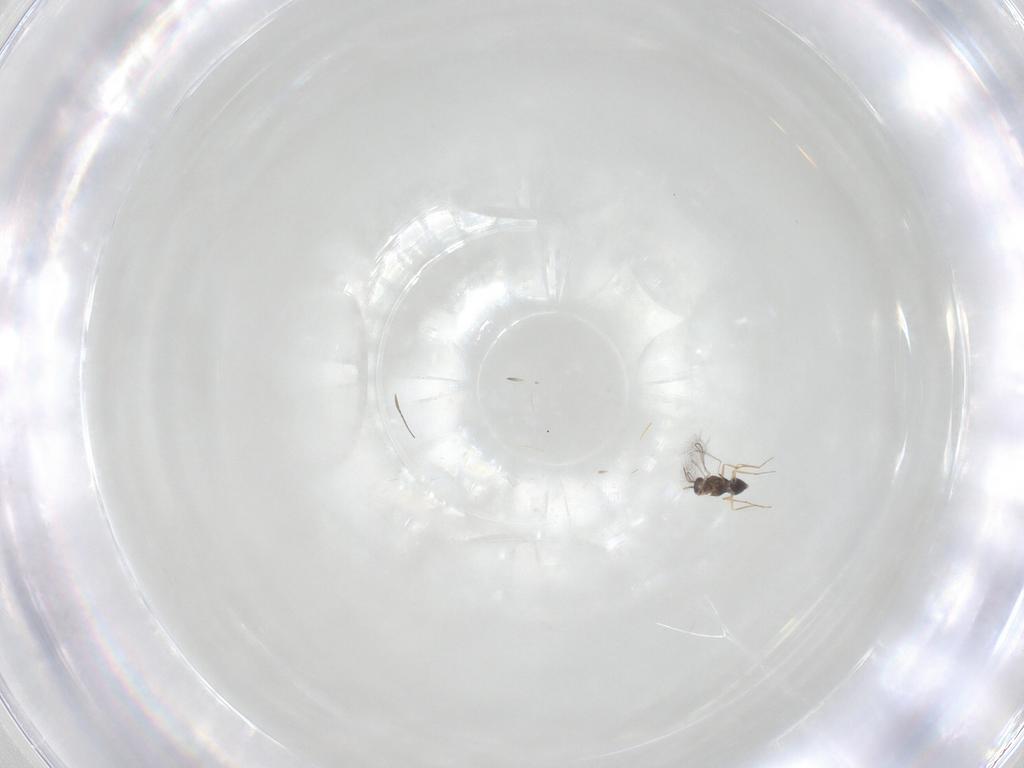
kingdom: Animalia
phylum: Arthropoda
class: Insecta
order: Hymenoptera
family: Mymaridae
